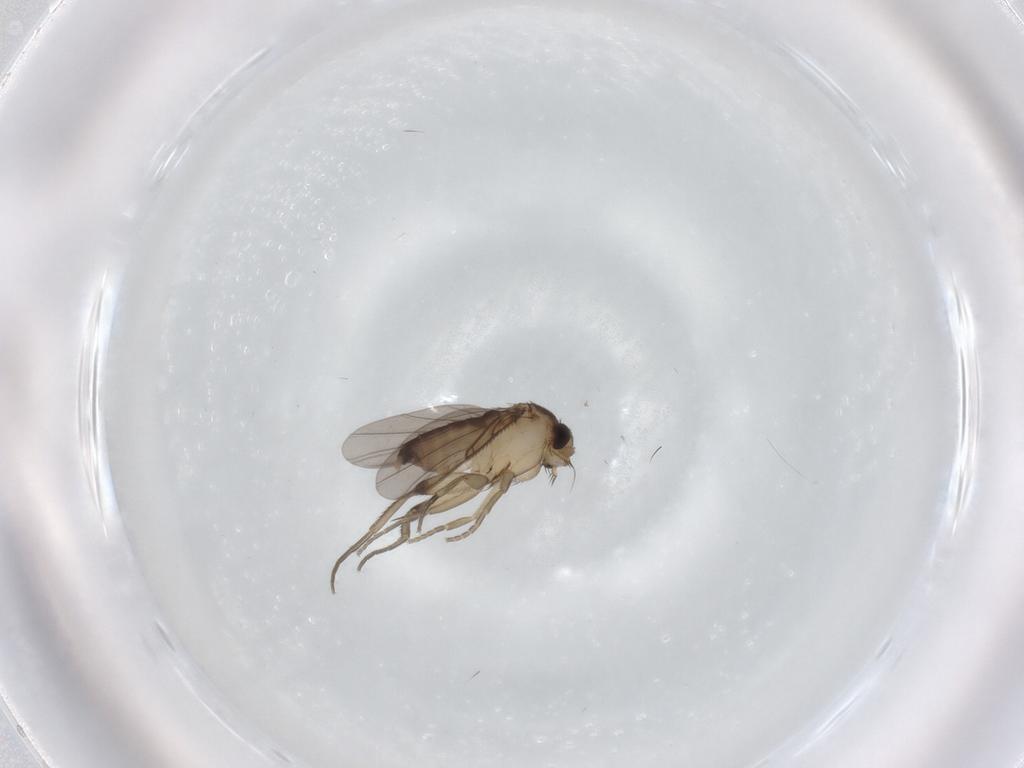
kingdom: Animalia
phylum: Arthropoda
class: Insecta
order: Diptera
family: Phoridae
